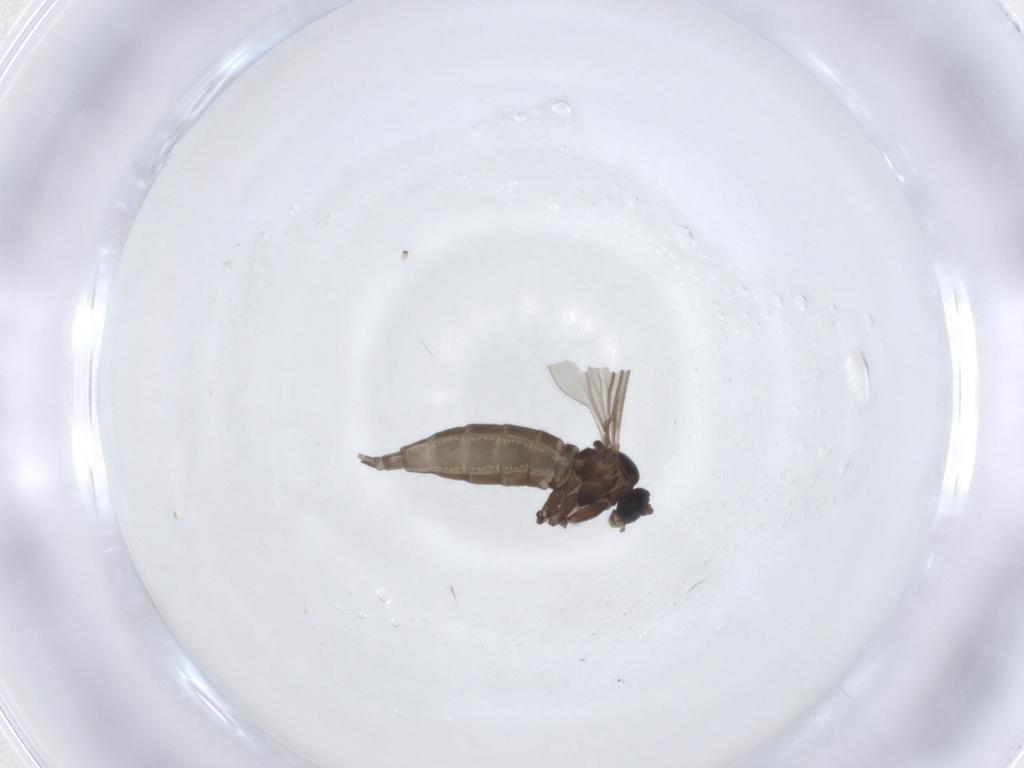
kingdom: Animalia
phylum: Arthropoda
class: Insecta
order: Diptera
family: Sciaridae
